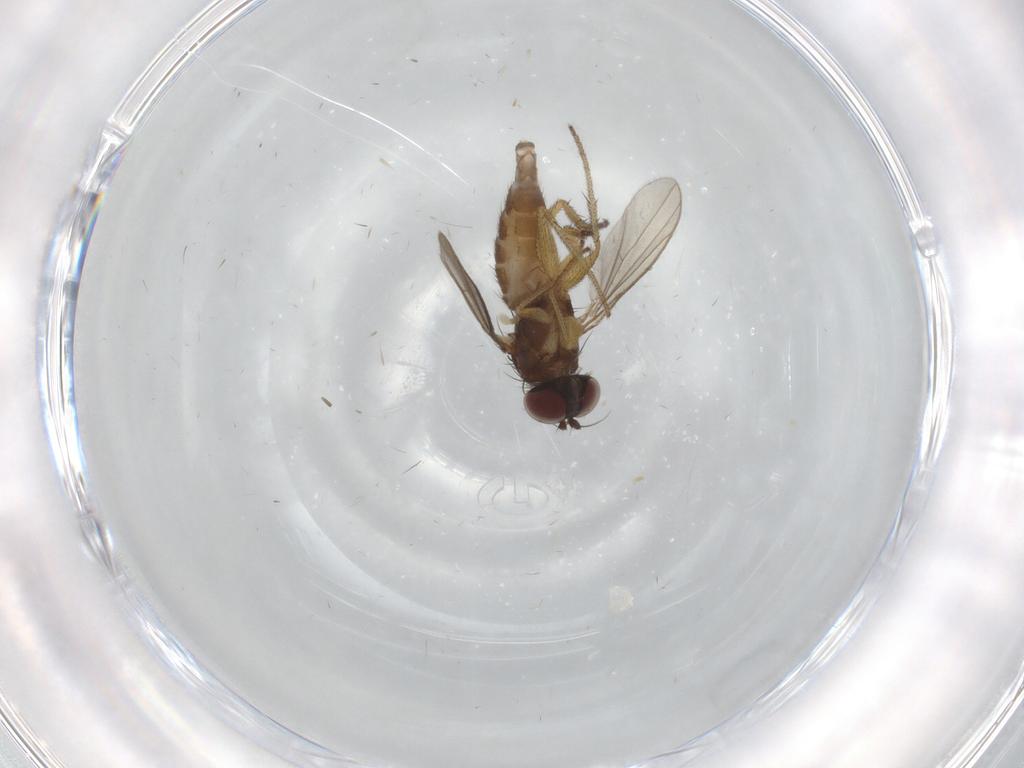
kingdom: Animalia
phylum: Arthropoda
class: Insecta
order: Diptera
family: Dolichopodidae
